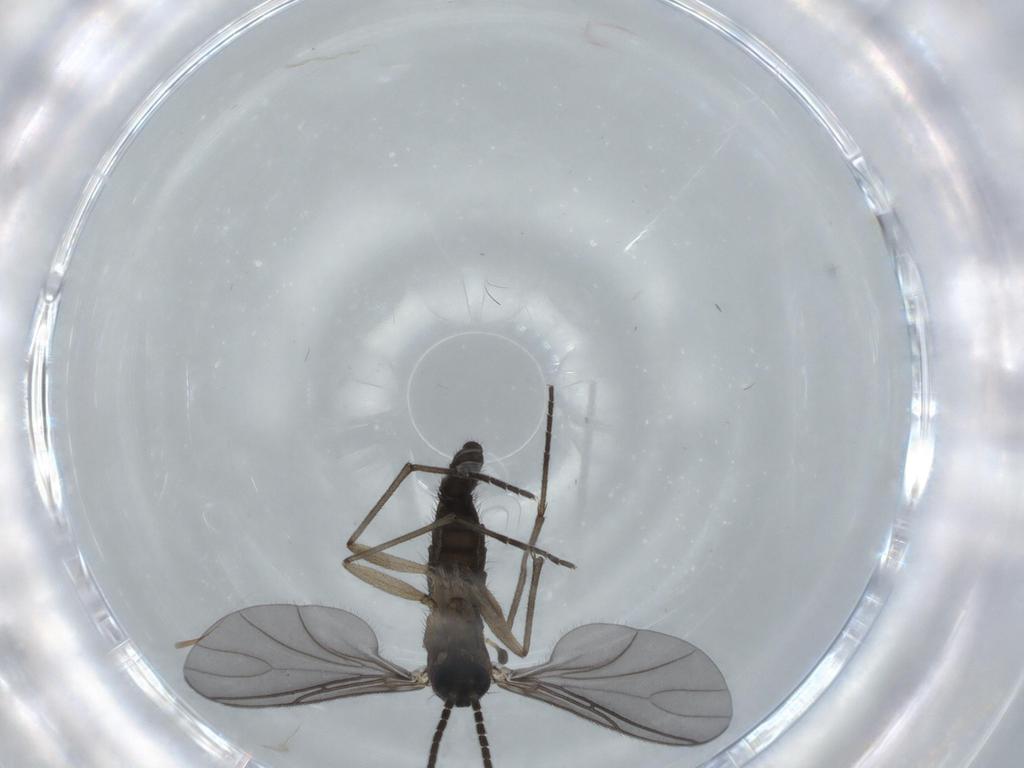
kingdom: Animalia
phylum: Arthropoda
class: Insecta
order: Diptera
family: Sciaridae
